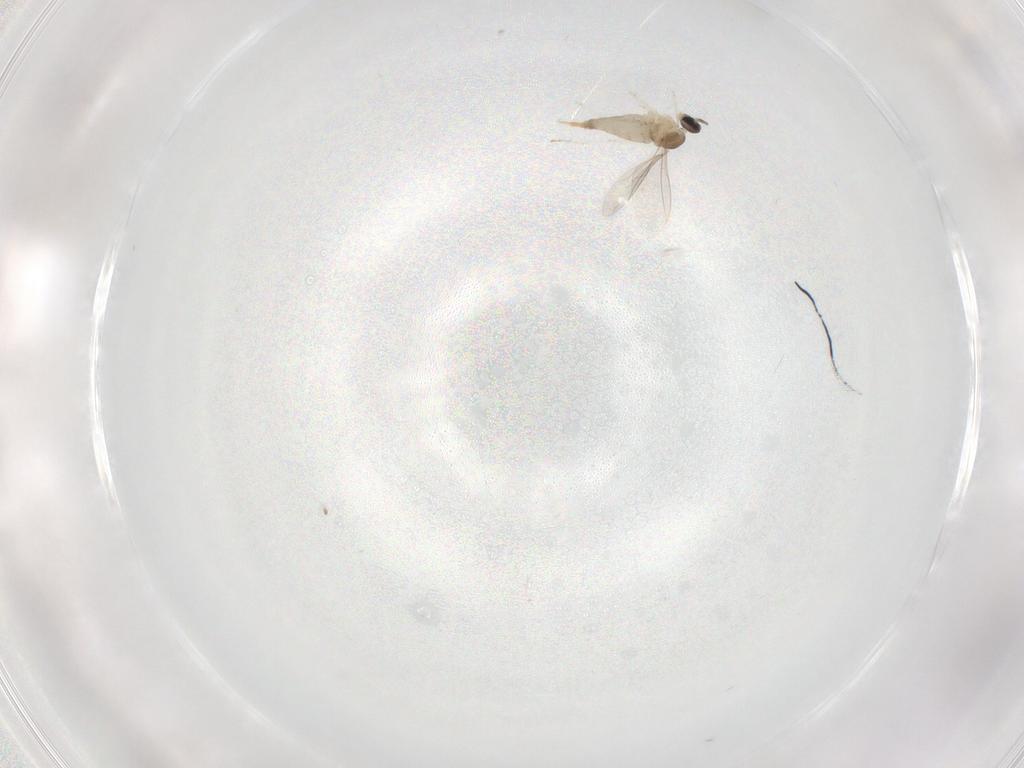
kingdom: Animalia
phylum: Arthropoda
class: Insecta
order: Diptera
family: Cecidomyiidae
